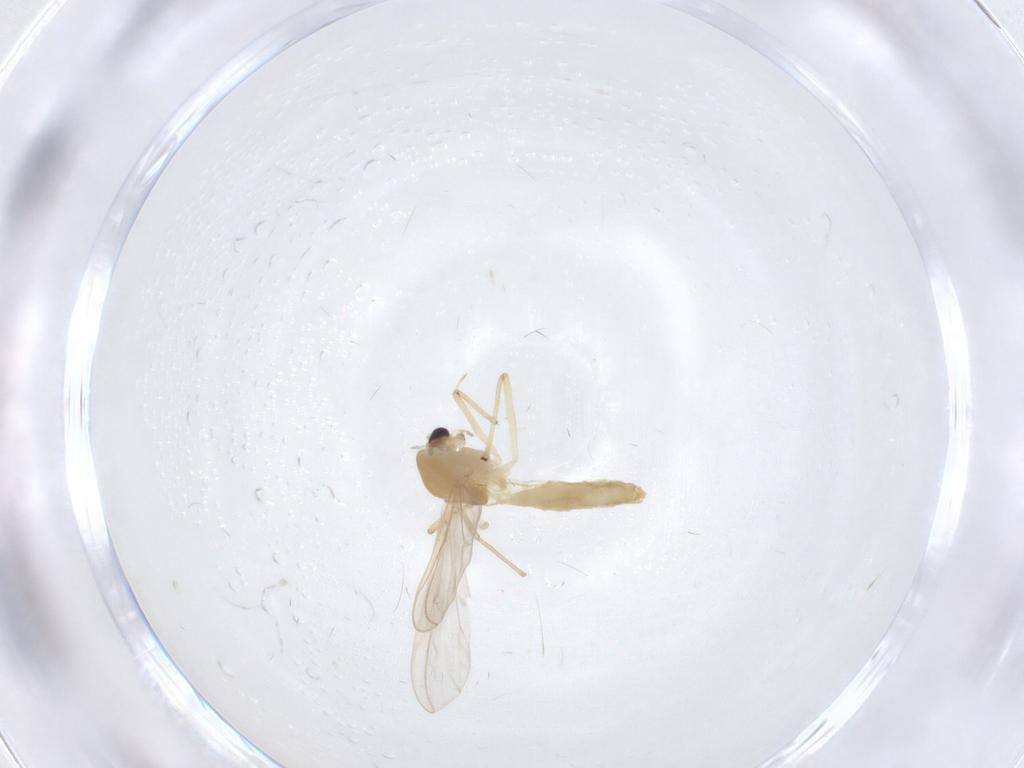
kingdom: Animalia
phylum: Arthropoda
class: Insecta
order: Diptera
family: Chironomidae
